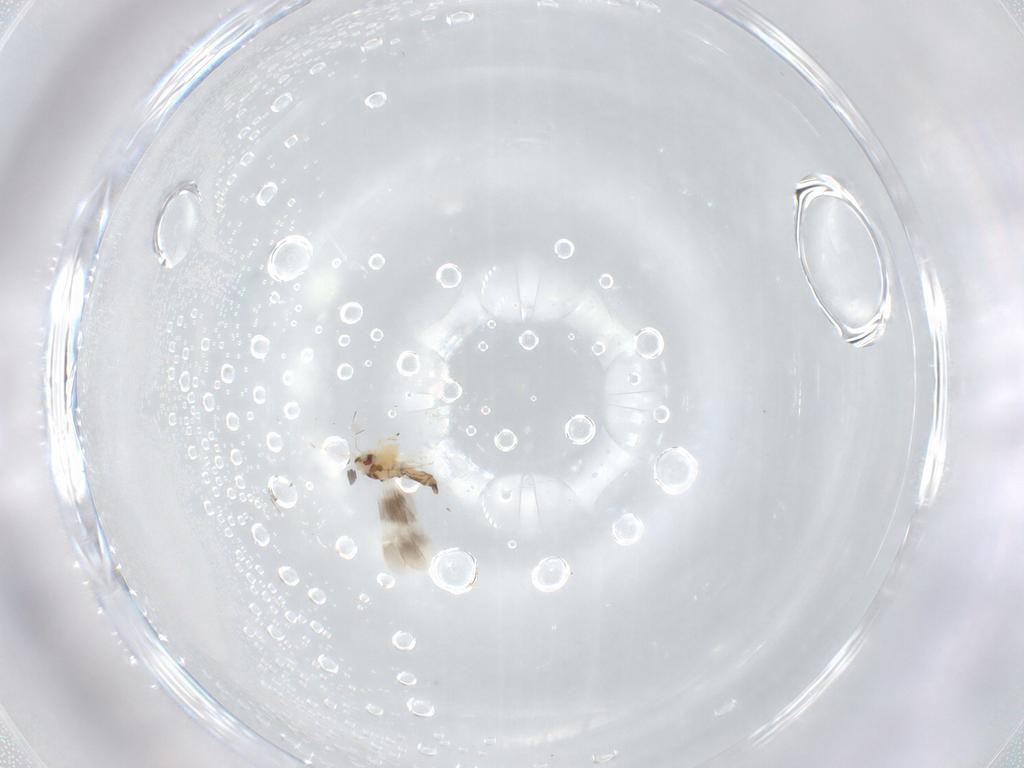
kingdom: Animalia
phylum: Arthropoda
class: Insecta
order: Hemiptera
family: Aleyrodidae
